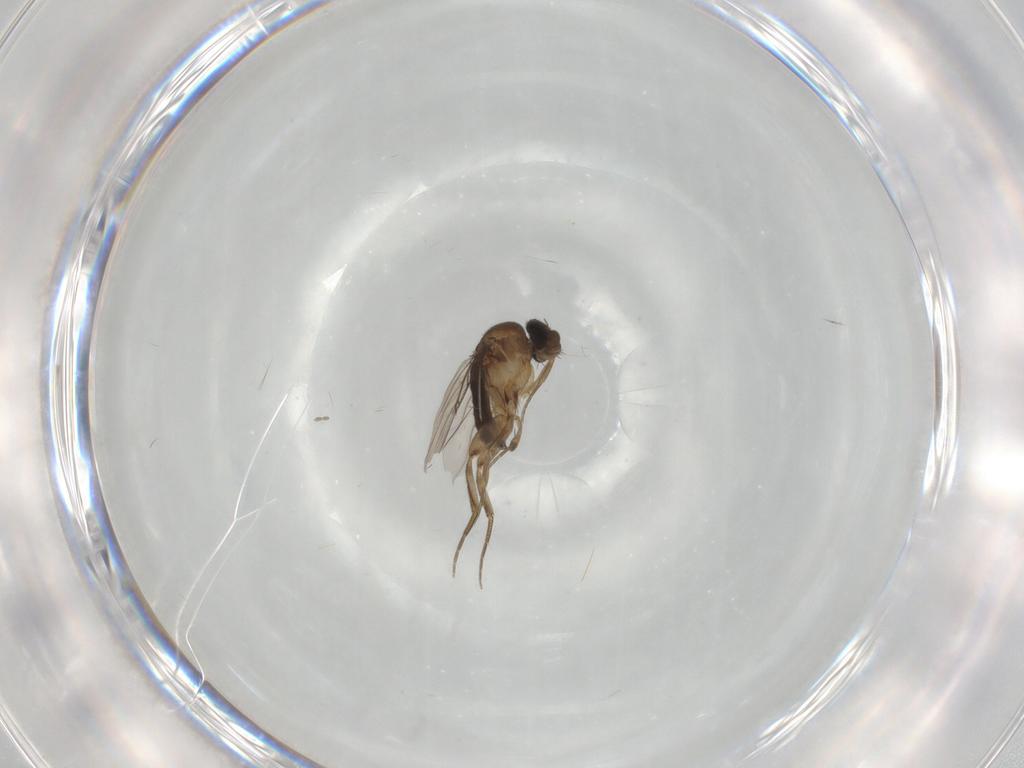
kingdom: Animalia
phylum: Arthropoda
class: Insecta
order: Diptera
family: Phoridae
